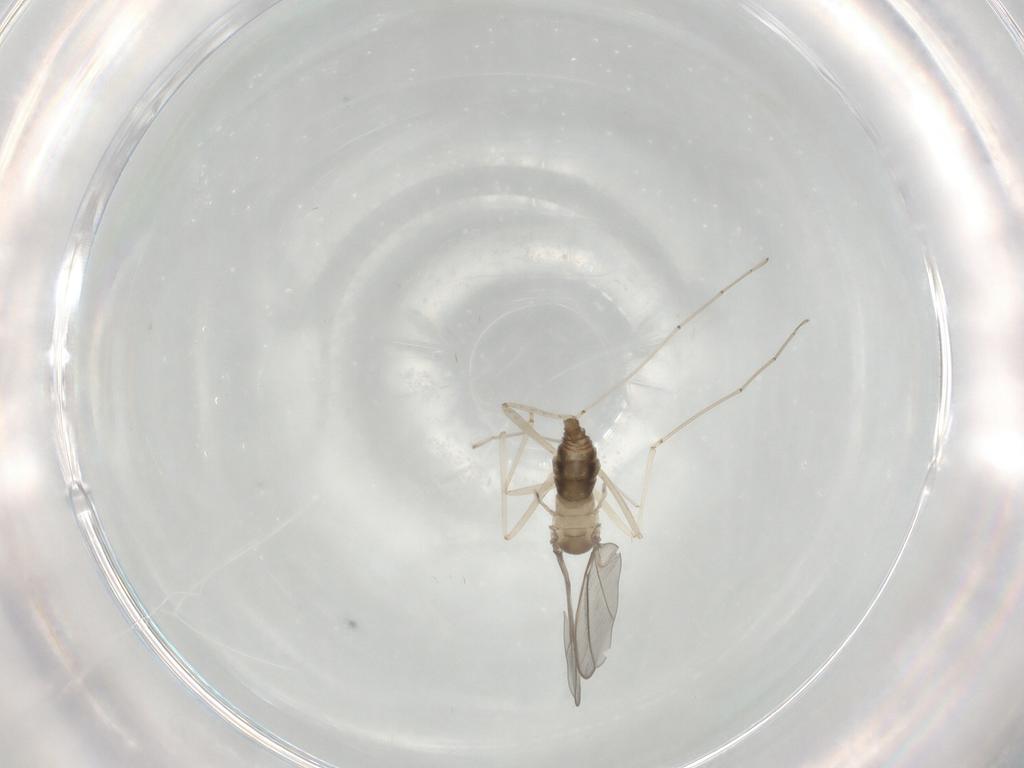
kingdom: Animalia
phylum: Arthropoda
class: Insecta
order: Diptera
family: Cecidomyiidae
